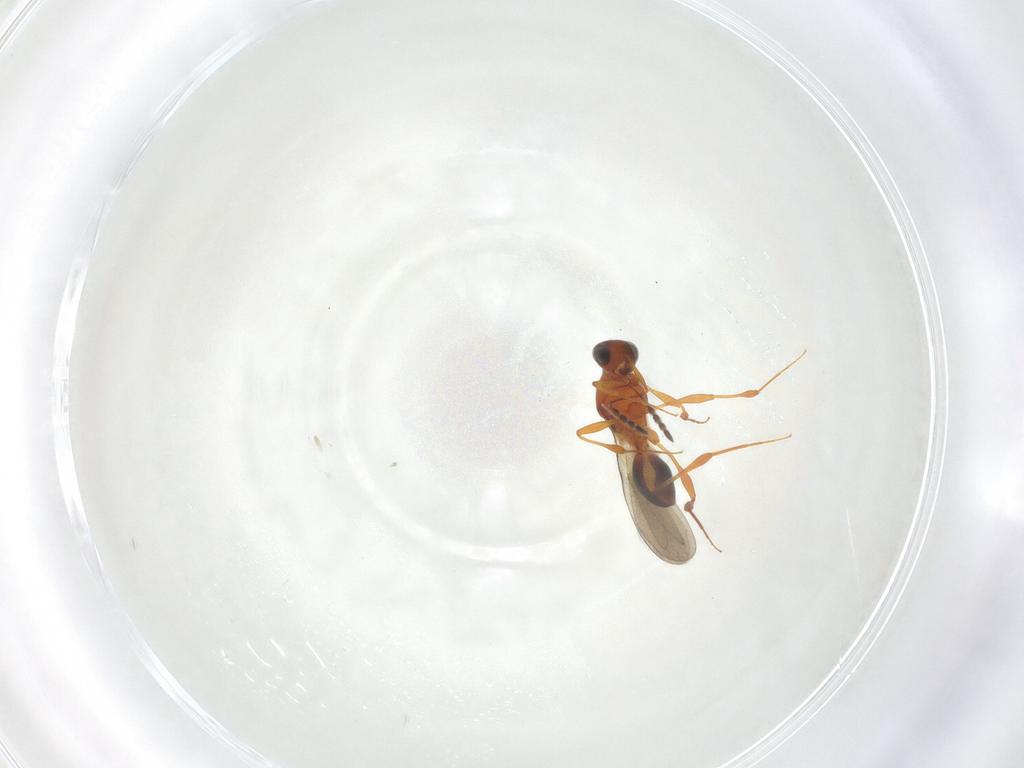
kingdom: Animalia
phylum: Arthropoda
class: Insecta
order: Hymenoptera
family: Platygastridae
